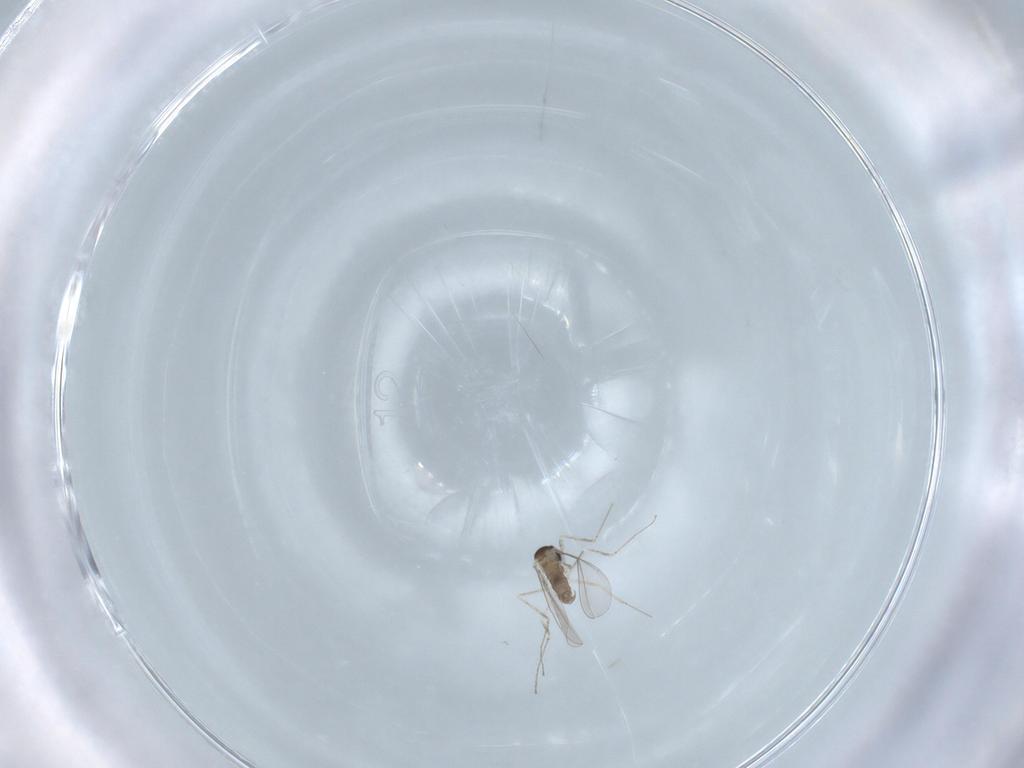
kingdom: Animalia
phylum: Arthropoda
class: Insecta
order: Diptera
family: Cecidomyiidae
